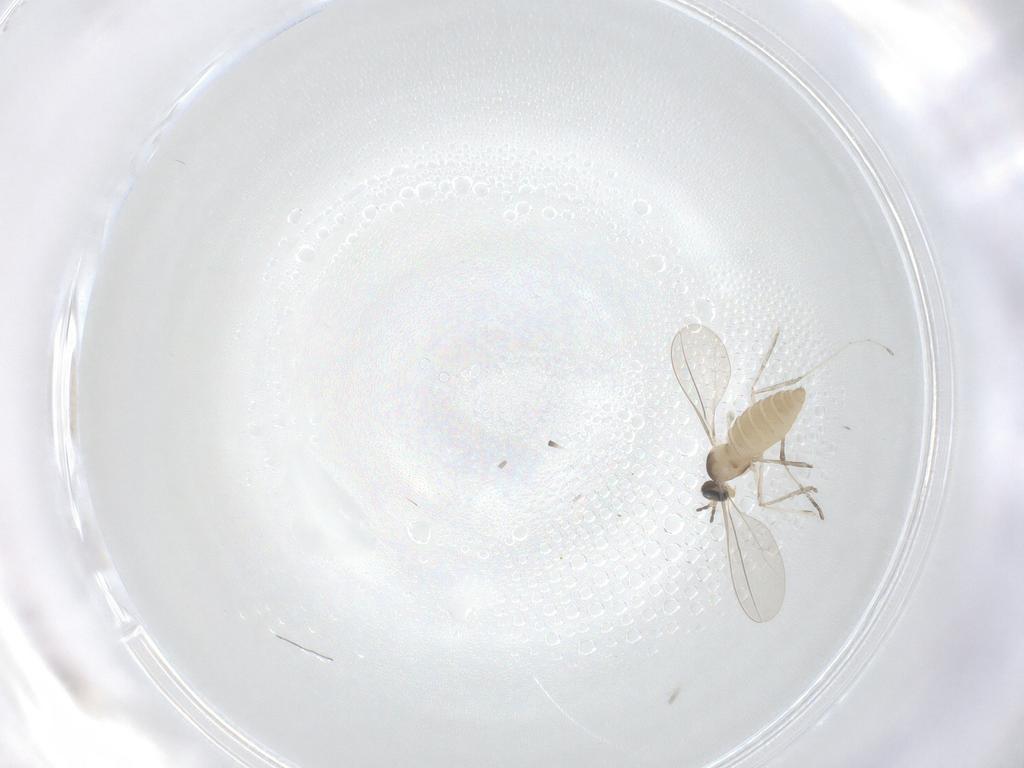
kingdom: Animalia
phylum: Arthropoda
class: Insecta
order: Diptera
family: Cecidomyiidae
